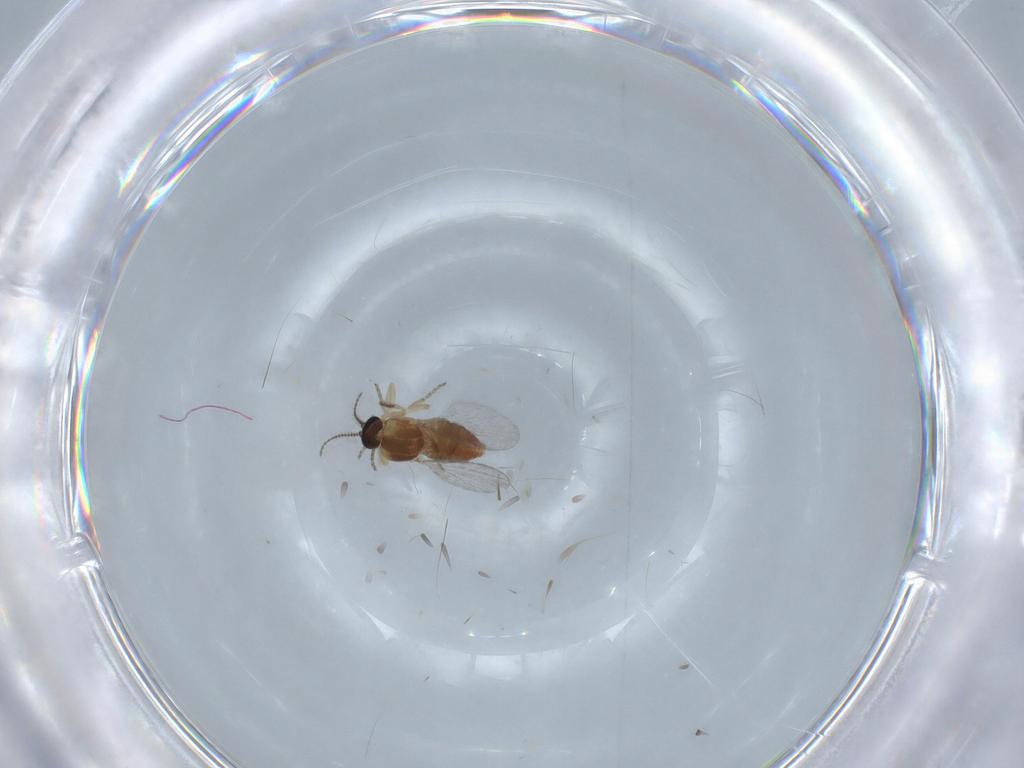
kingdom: Animalia
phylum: Arthropoda
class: Insecta
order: Diptera
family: Ceratopogonidae
